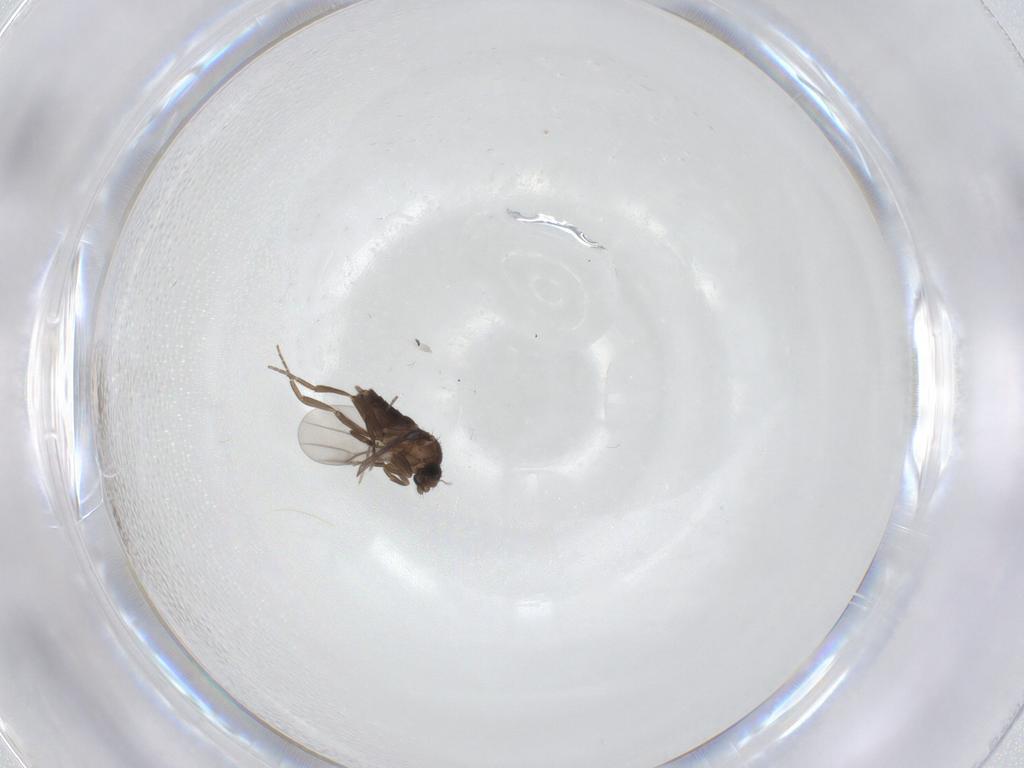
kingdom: Animalia
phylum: Arthropoda
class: Insecta
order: Diptera
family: Cecidomyiidae
